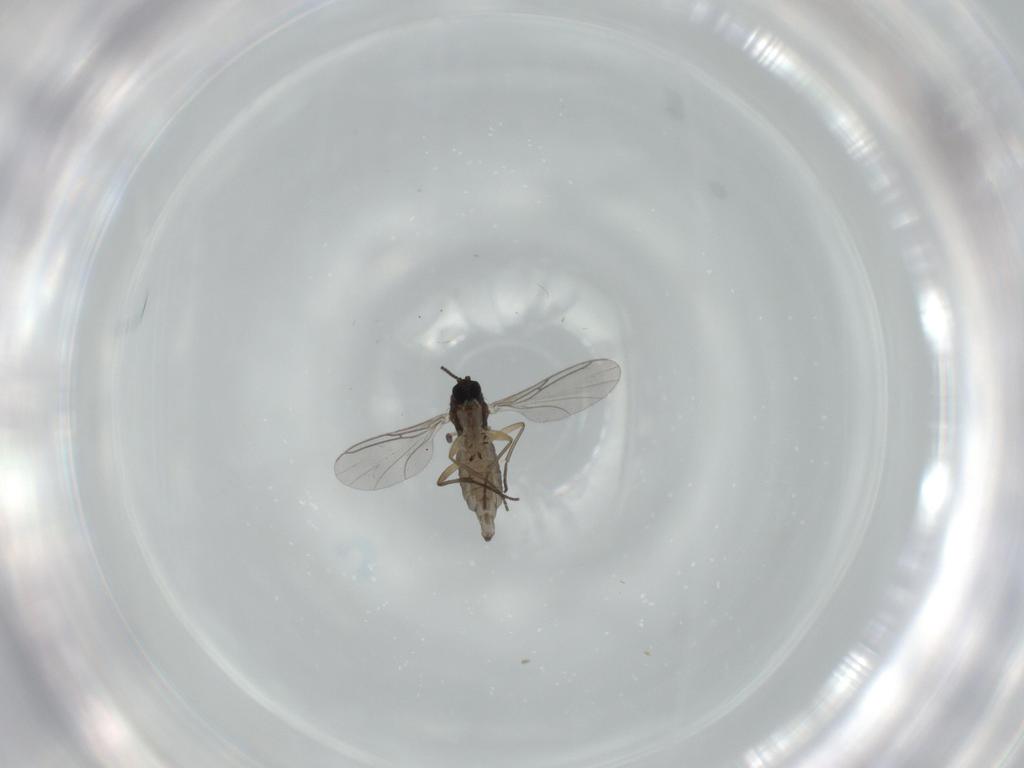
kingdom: Animalia
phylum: Arthropoda
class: Insecta
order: Diptera
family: Sciaridae
